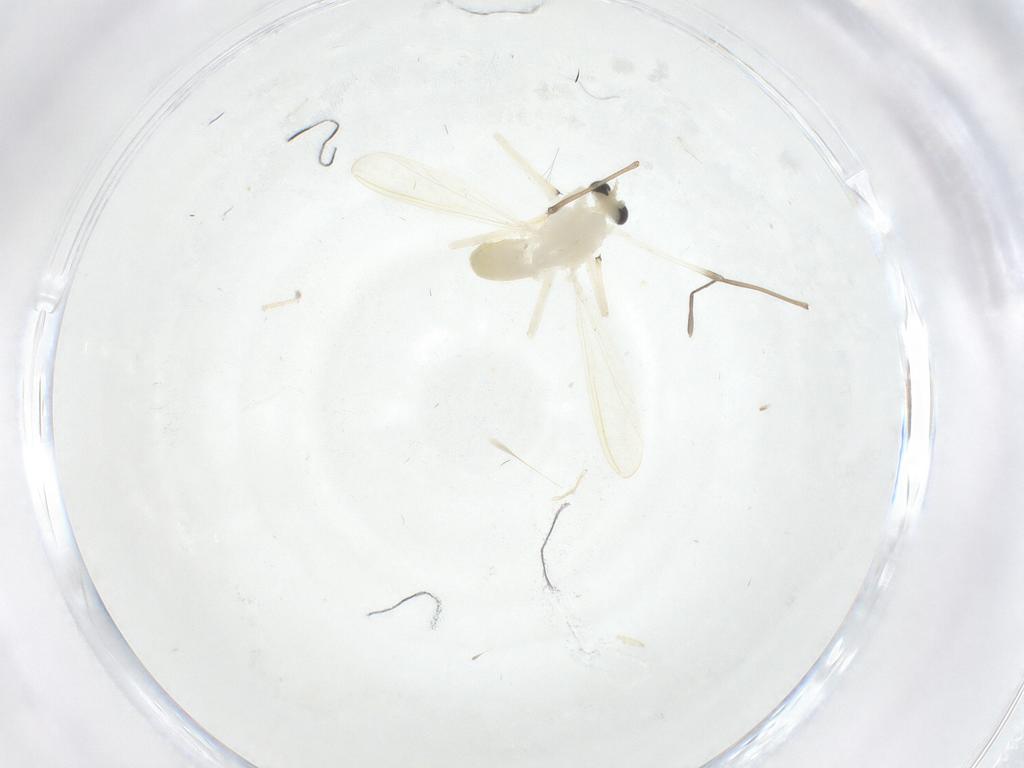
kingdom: Animalia
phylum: Arthropoda
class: Insecta
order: Diptera
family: Chironomidae
